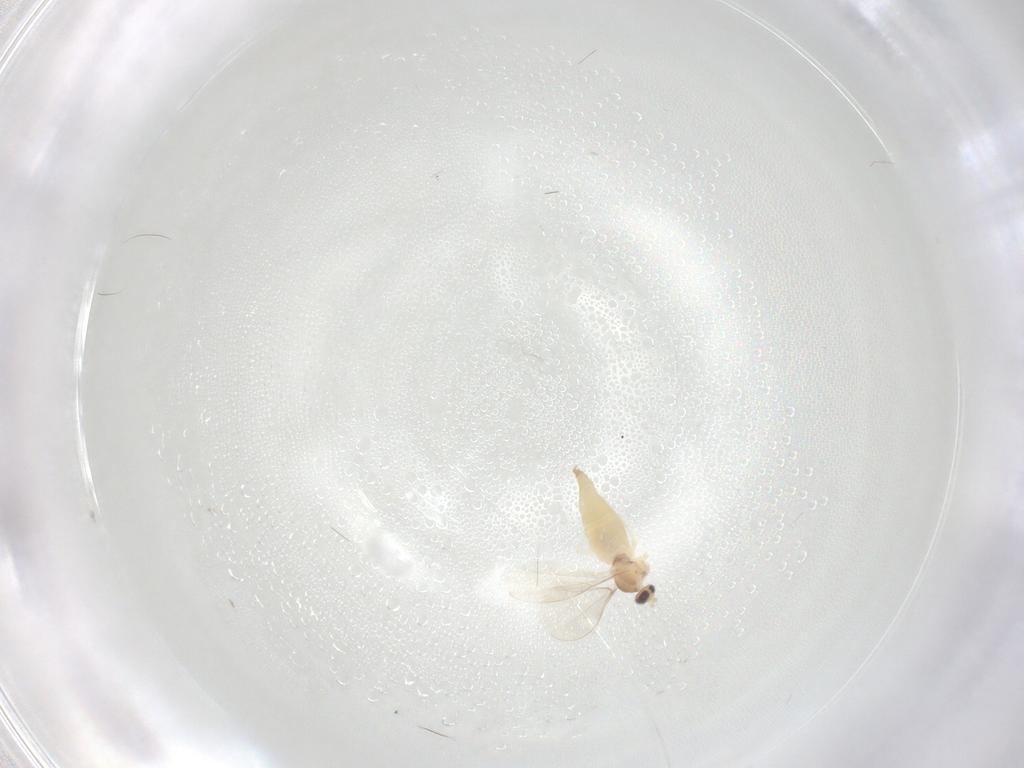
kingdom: Animalia
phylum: Arthropoda
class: Insecta
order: Diptera
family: Cecidomyiidae
